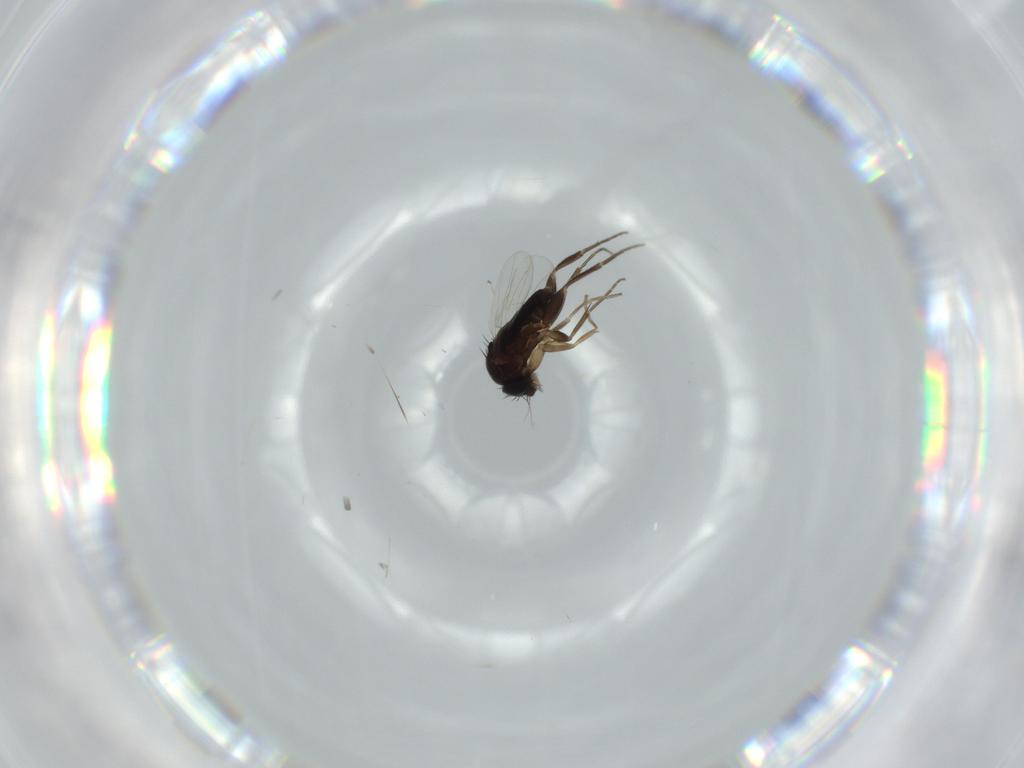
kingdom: Animalia
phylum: Arthropoda
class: Insecta
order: Diptera
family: Phoridae
